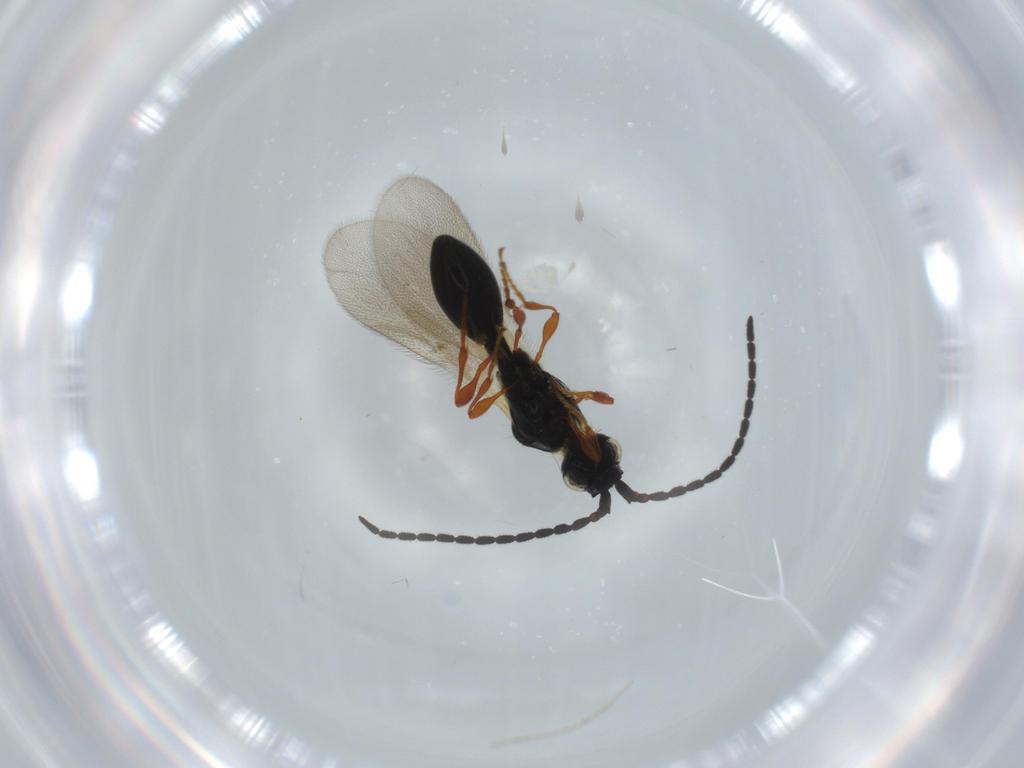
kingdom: Animalia
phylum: Arthropoda
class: Insecta
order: Hymenoptera
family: Diapriidae
